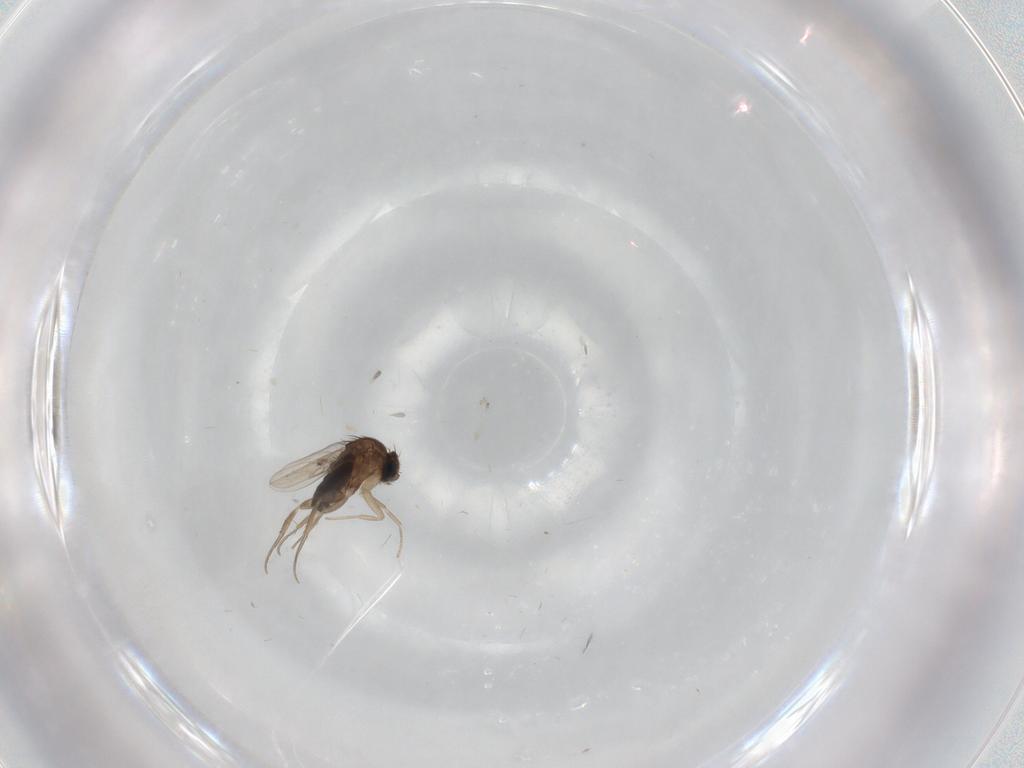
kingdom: Animalia
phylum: Arthropoda
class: Insecta
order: Diptera
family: Phoridae
